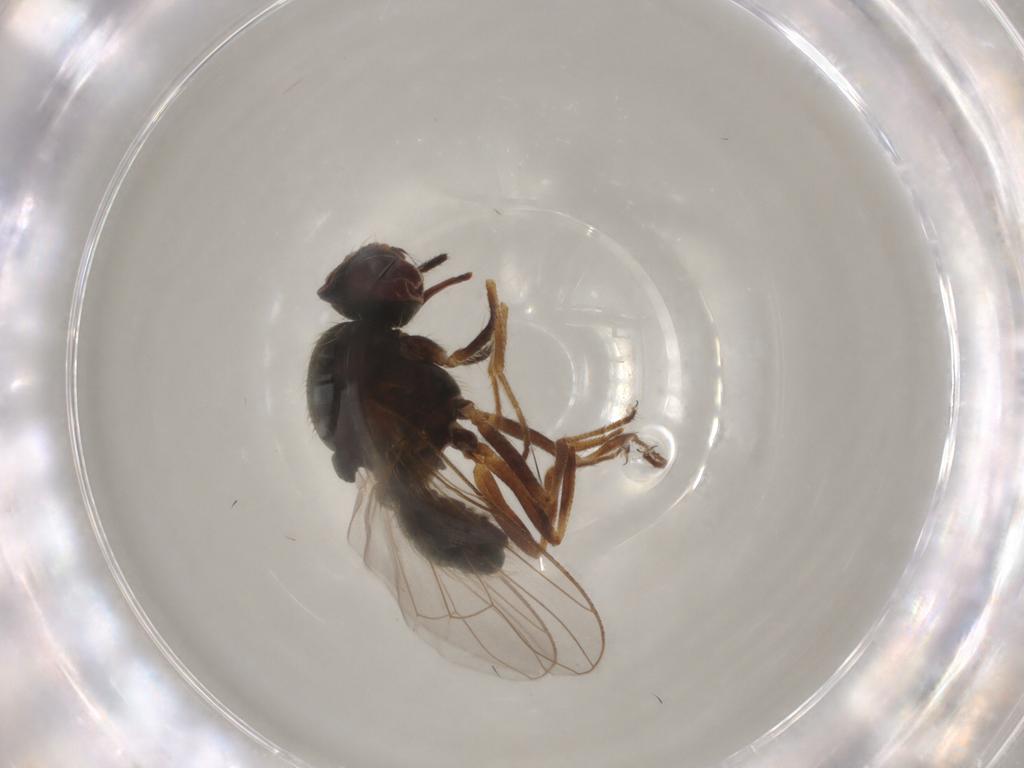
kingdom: Animalia
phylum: Arthropoda
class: Insecta
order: Diptera
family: Muscidae
